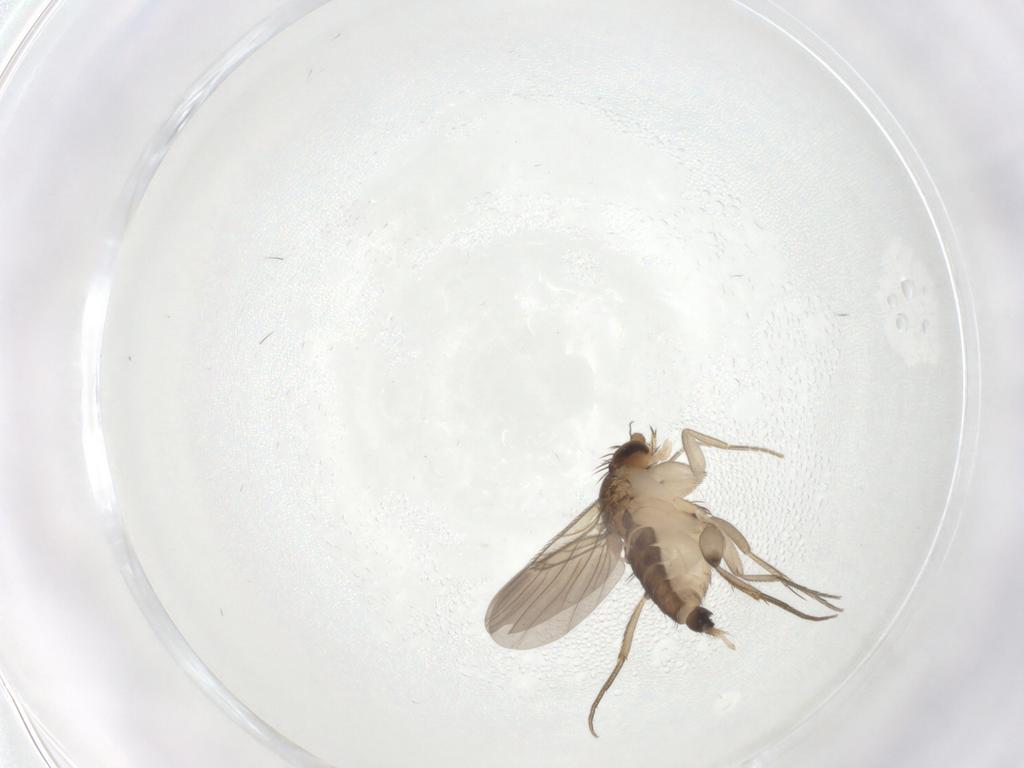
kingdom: Animalia
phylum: Arthropoda
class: Insecta
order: Diptera
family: Phoridae
